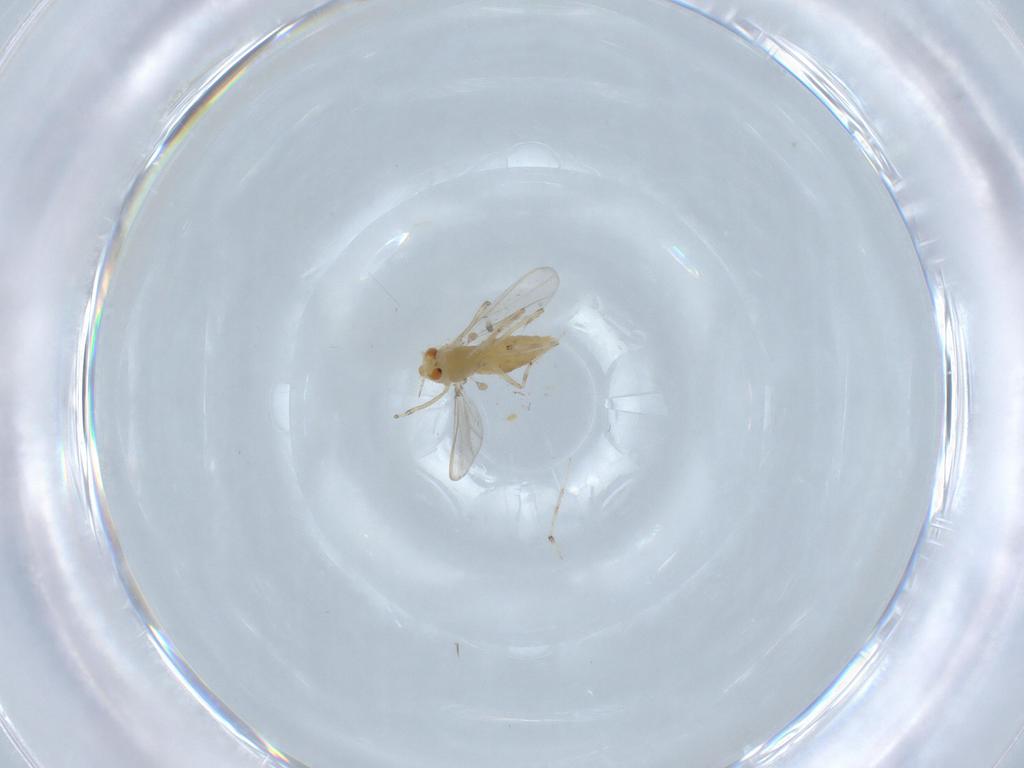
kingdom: Animalia
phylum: Arthropoda
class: Insecta
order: Diptera
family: Chironomidae
